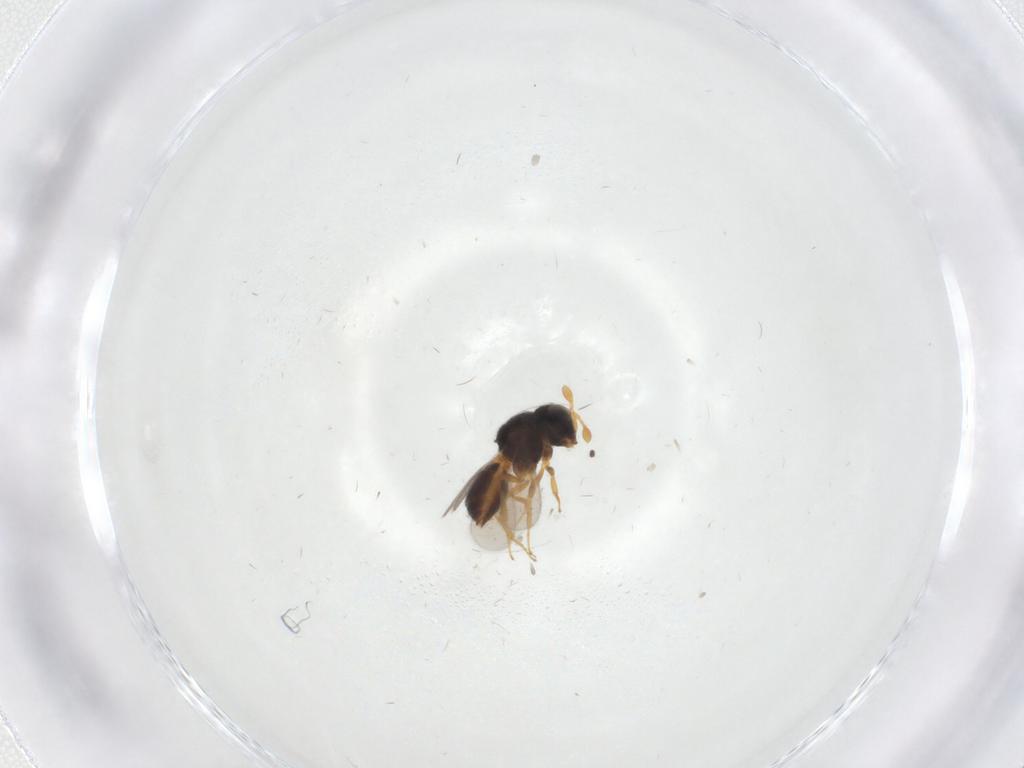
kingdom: Animalia
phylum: Arthropoda
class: Insecta
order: Hymenoptera
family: Scelionidae
